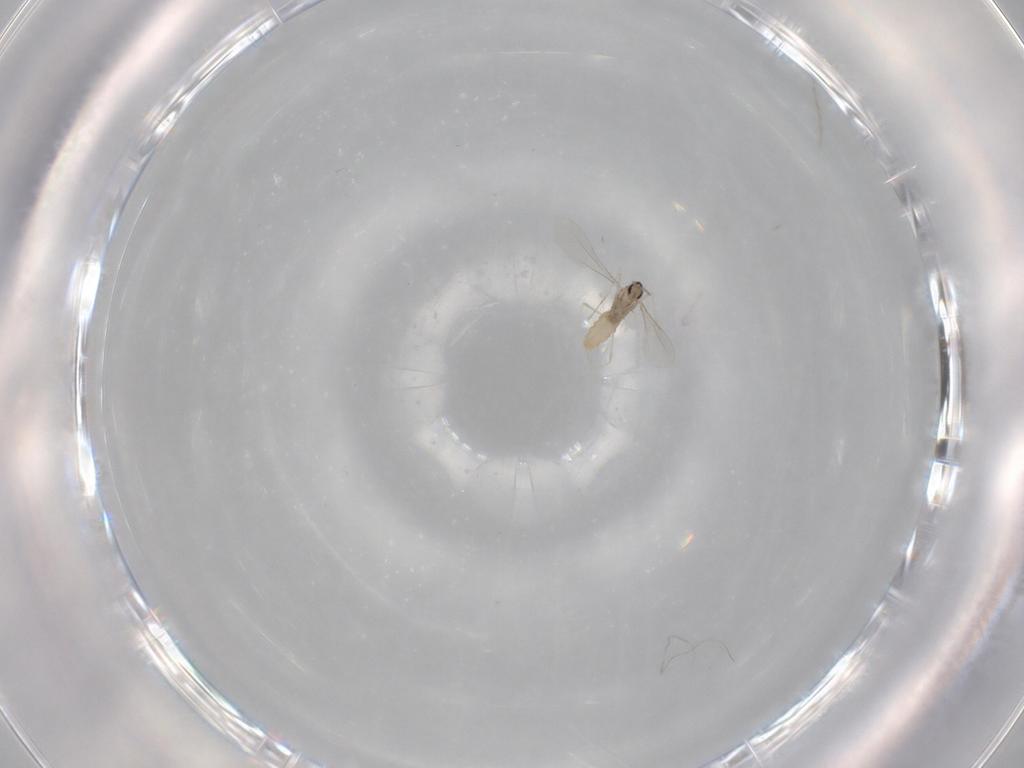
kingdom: Animalia
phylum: Arthropoda
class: Insecta
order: Diptera
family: Cecidomyiidae
